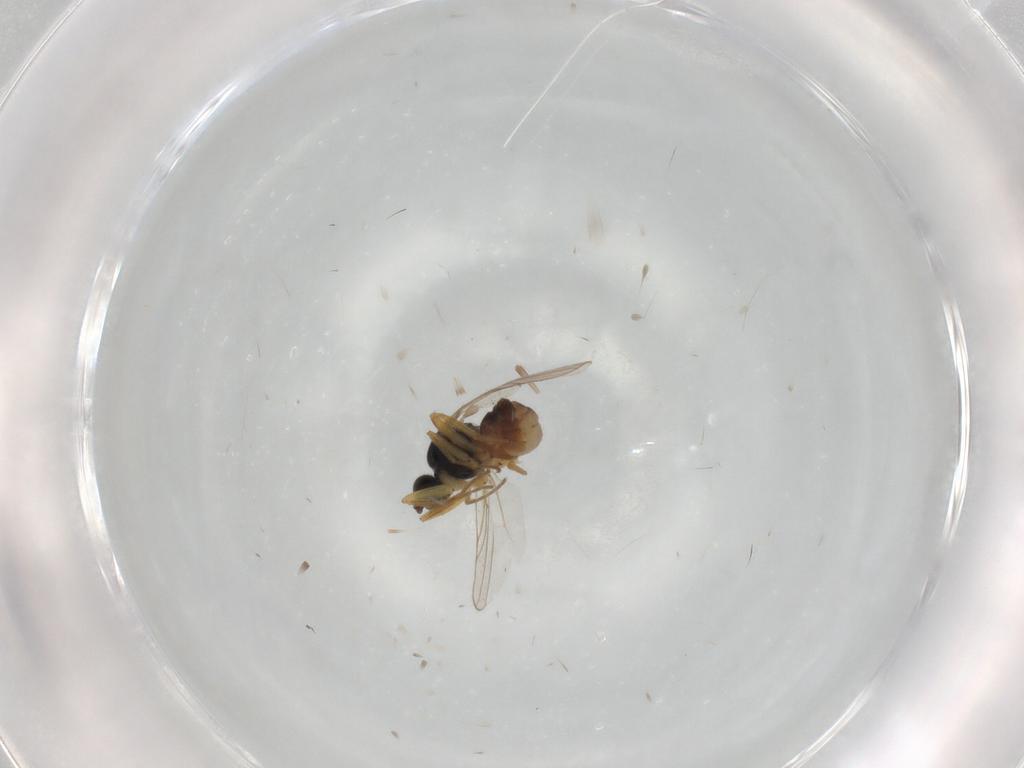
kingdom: Animalia
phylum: Arthropoda
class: Insecta
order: Diptera
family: Hybotidae
